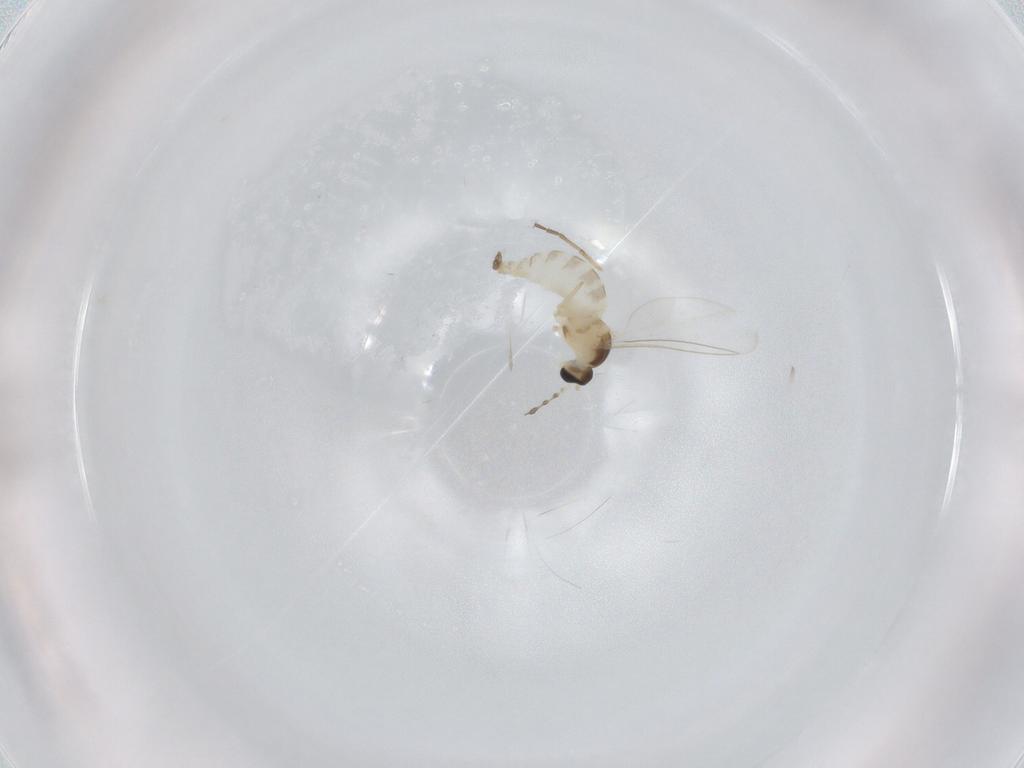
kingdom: Animalia
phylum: Arthropoda
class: Insecta
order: Diptera
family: Cecidomyiidae
